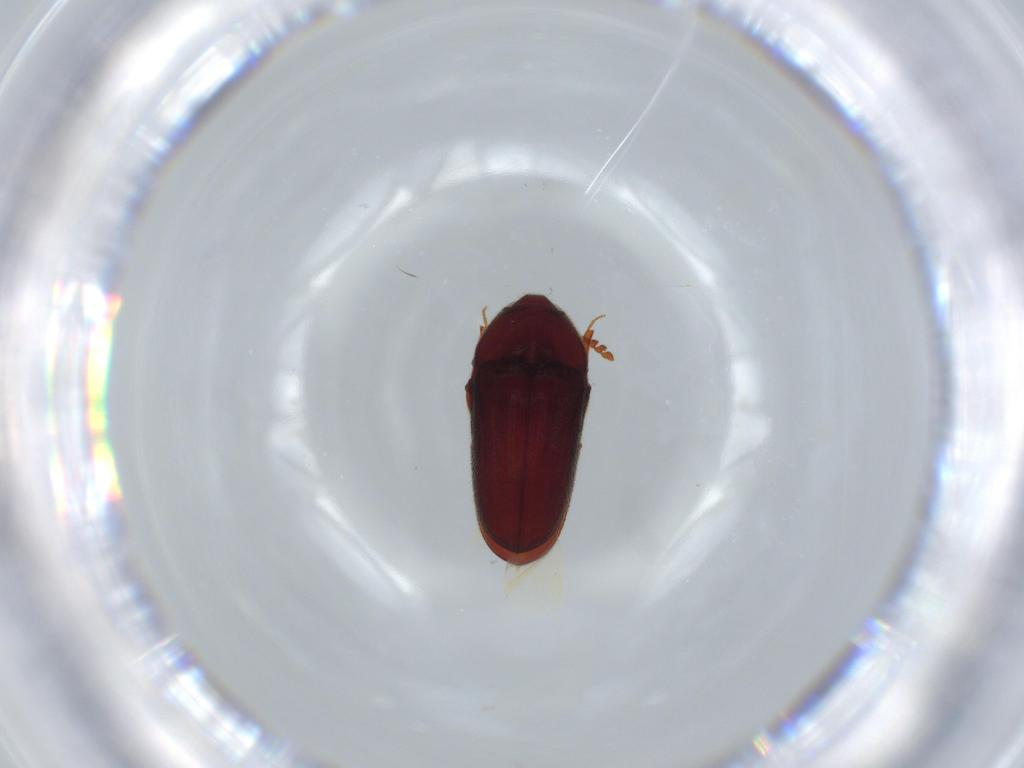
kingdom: Animalia
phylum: Arthropoda
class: Insecta
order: Coleoptera
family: Throscidae
